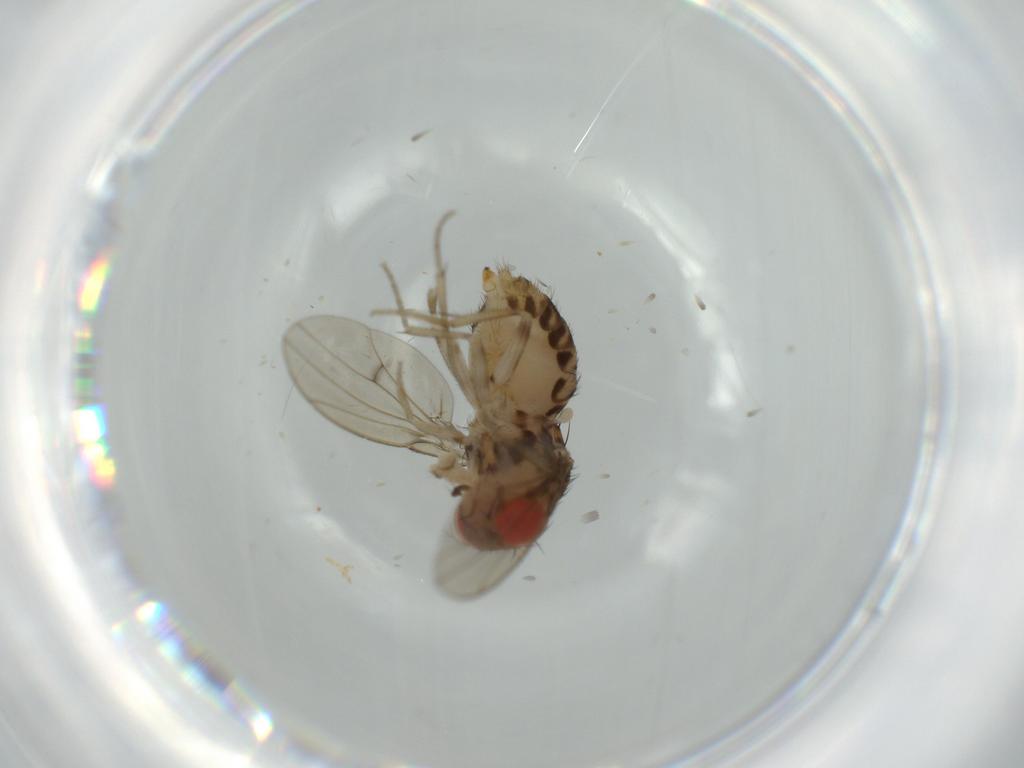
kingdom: Animalia
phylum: Arthropoda
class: Insecta
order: Diptera
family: Drosophilidae
